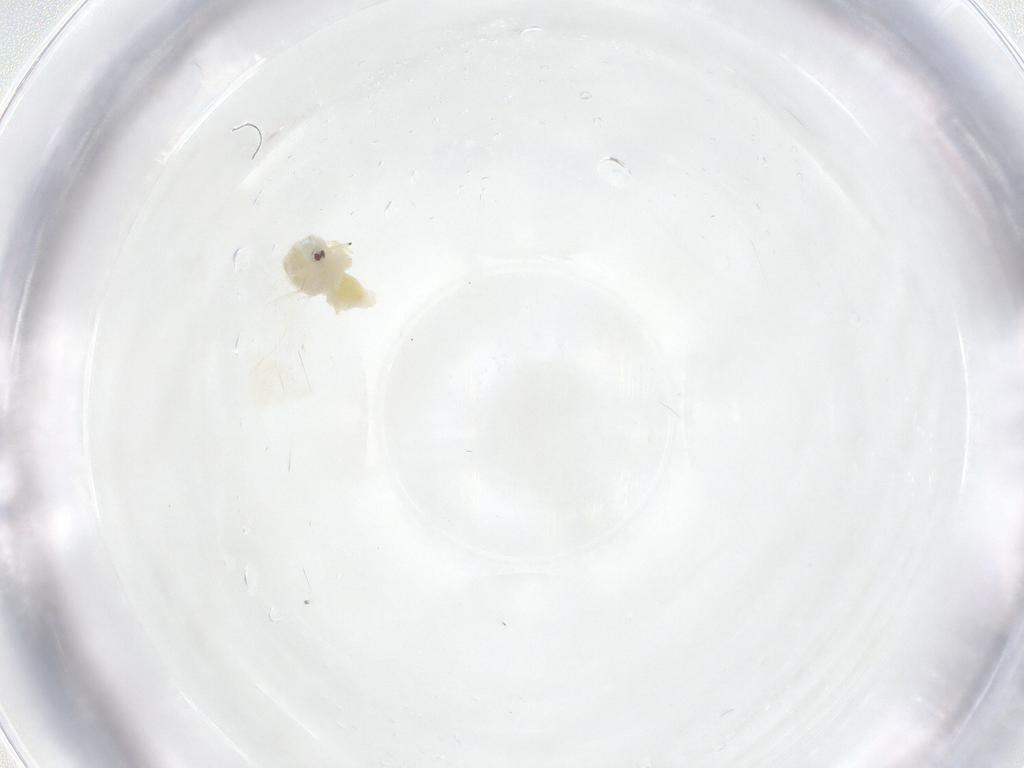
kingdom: Animalia
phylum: Arthropoda
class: Insecta
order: Hemiptera
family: Aleyrodidae
